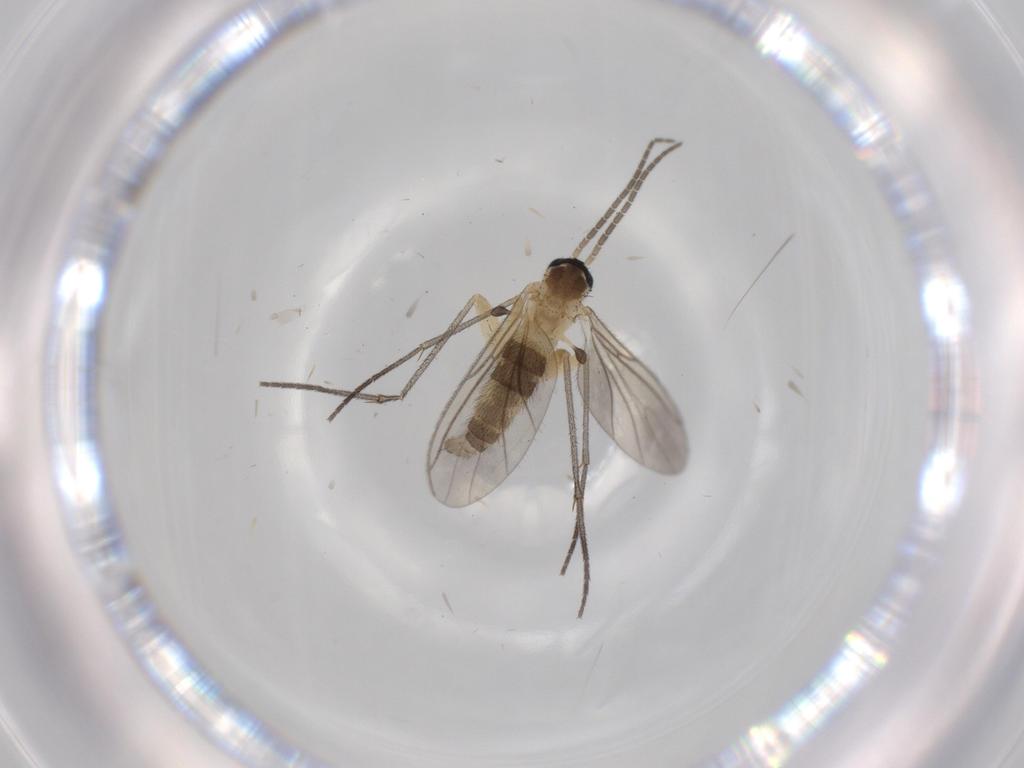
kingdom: Animalia
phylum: Arthropoda
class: Insecta
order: Diptera
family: Sciaridae
